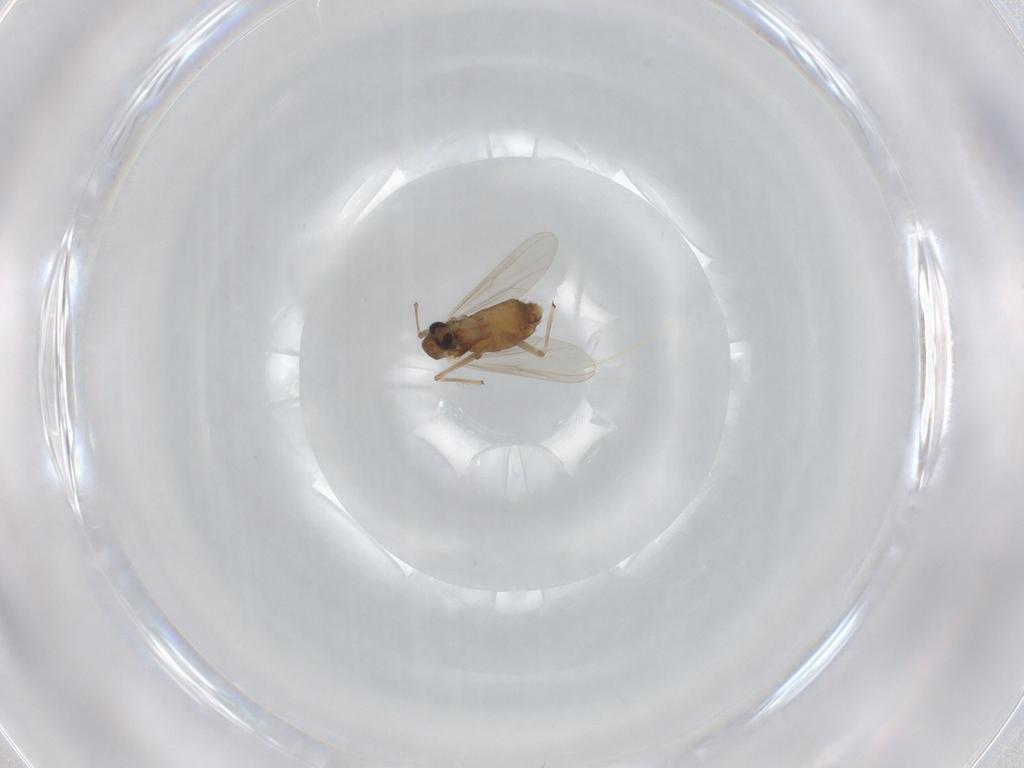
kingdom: Animalia
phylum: Arthropoda
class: Insecta
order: Diptera
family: Chironomidae
